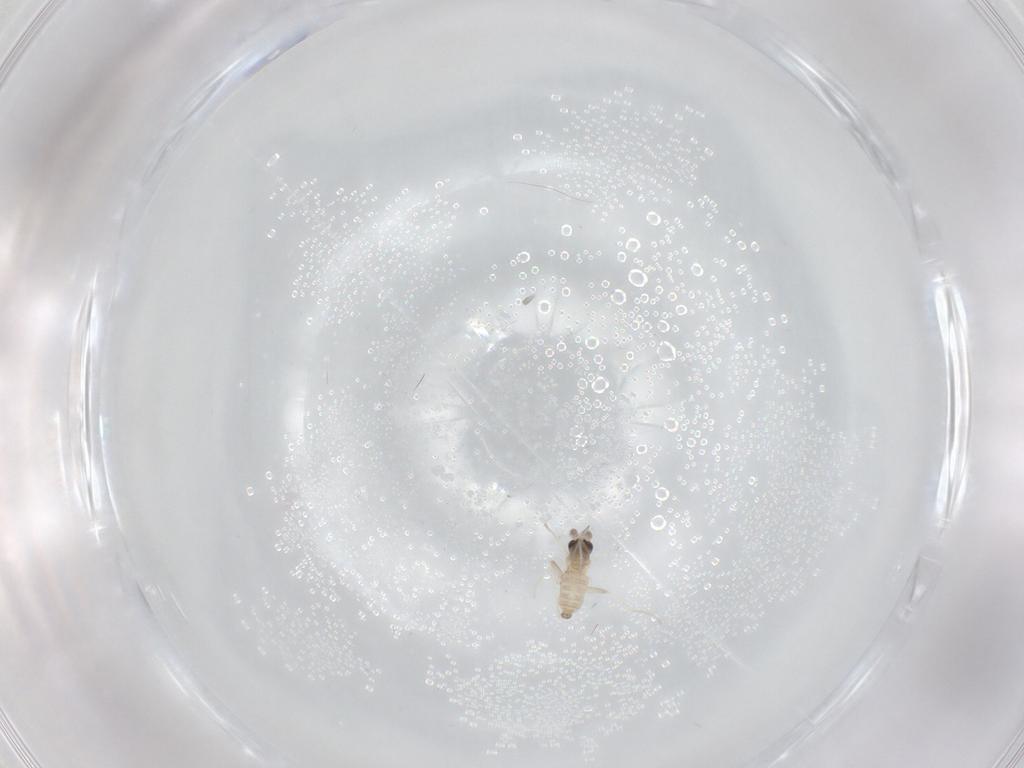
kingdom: Animalia
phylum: Arthropoda
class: Insecta
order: Diptera
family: Cecidomyiidae
